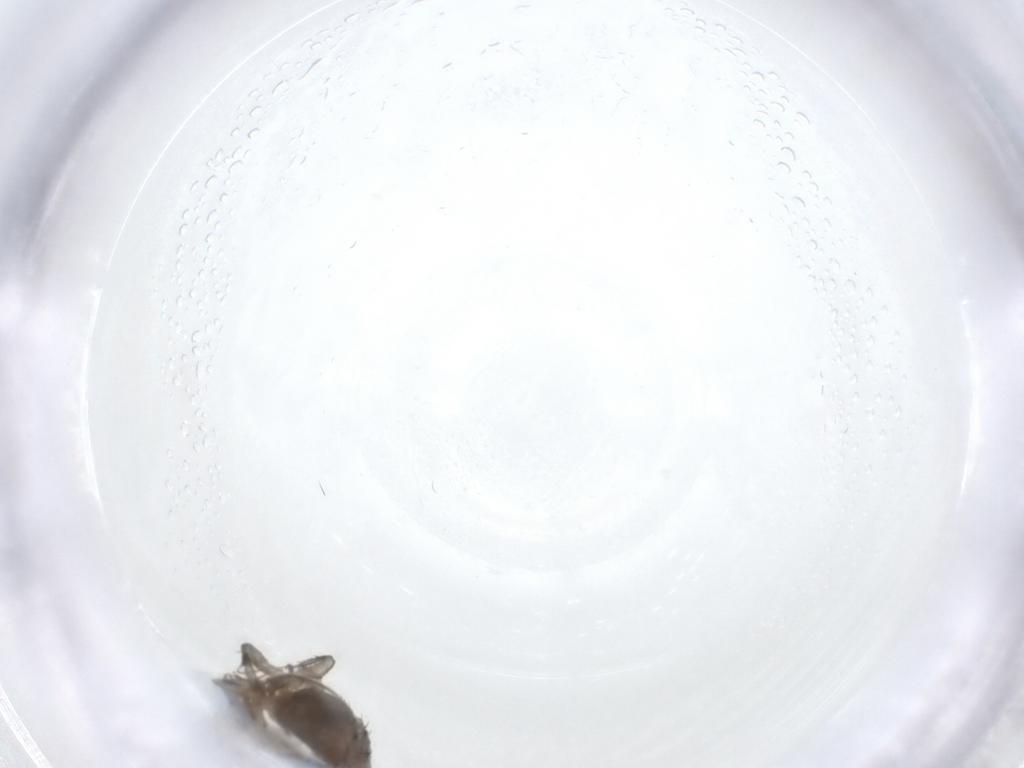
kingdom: Animalia
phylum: Arthropoda
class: Insecta
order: Diptera
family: Sphaeroceridae
